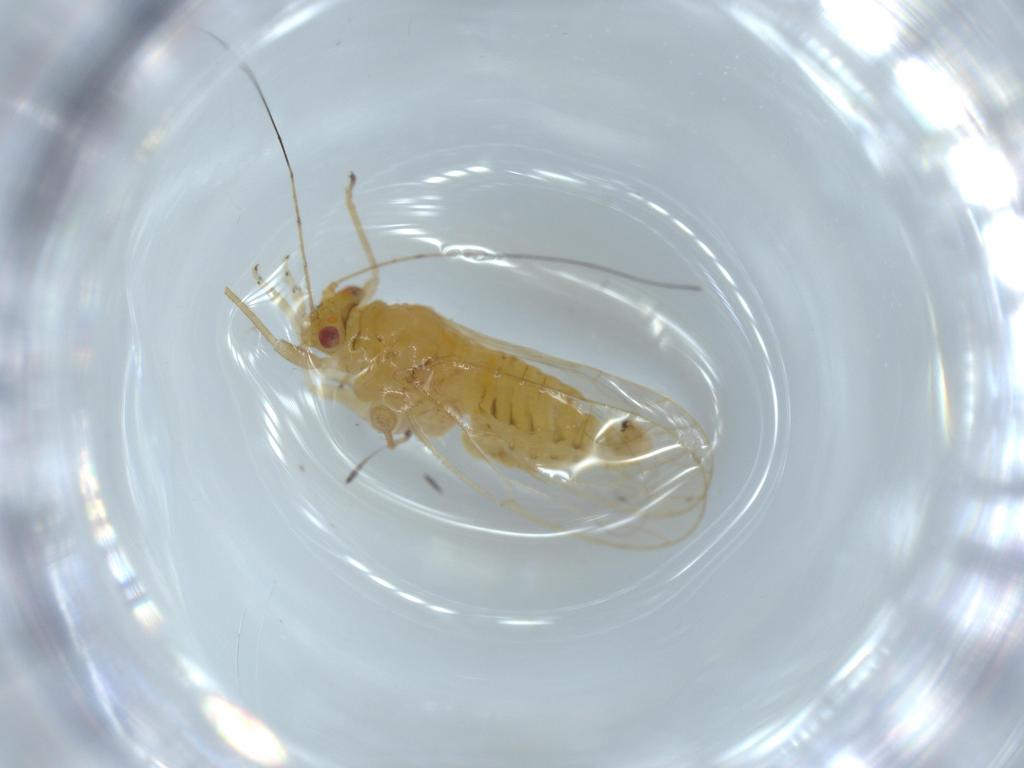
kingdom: Animalia
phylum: Arthropoda
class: Insecta
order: Hemiptera
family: Psyllidae
